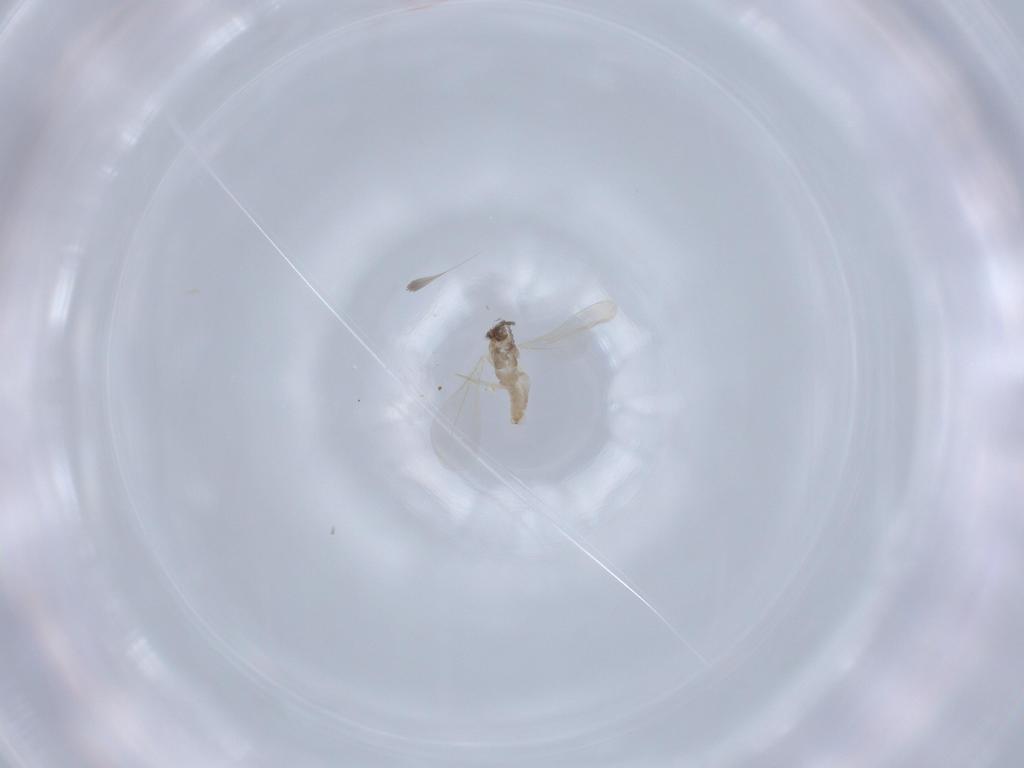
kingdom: Animalia
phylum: Arthropoda
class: Insecta
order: Diptera
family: Cecidomyiidae
